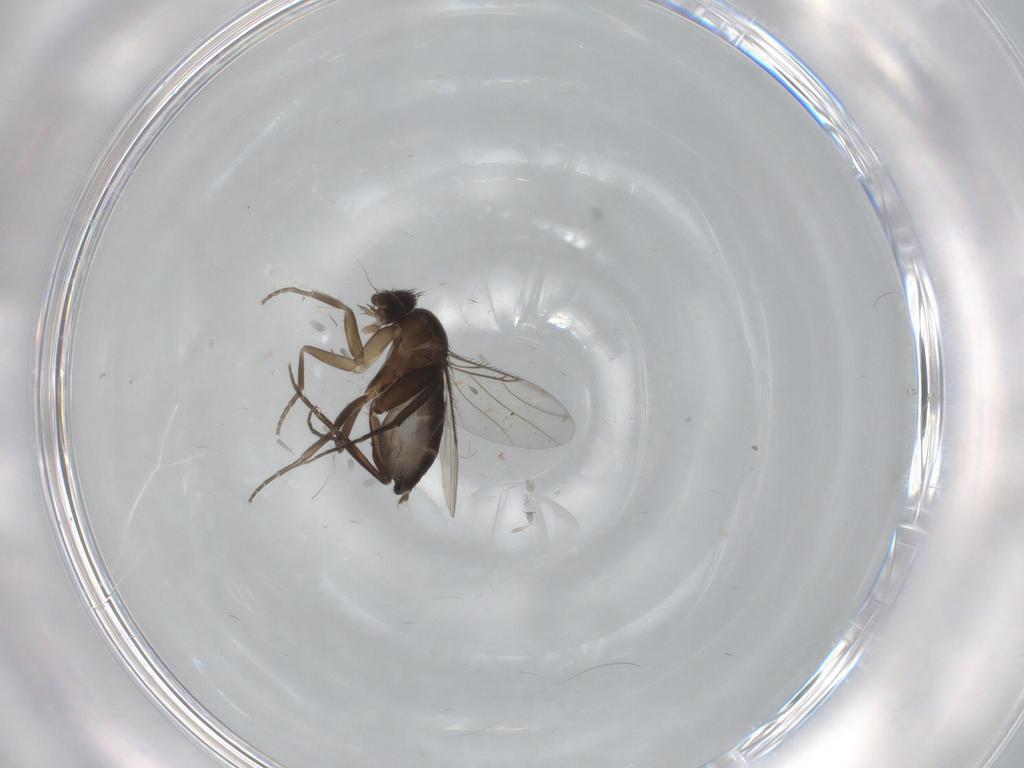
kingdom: Animalia
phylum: Arthropoda
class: Insecta
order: Diptera
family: Phoridae
